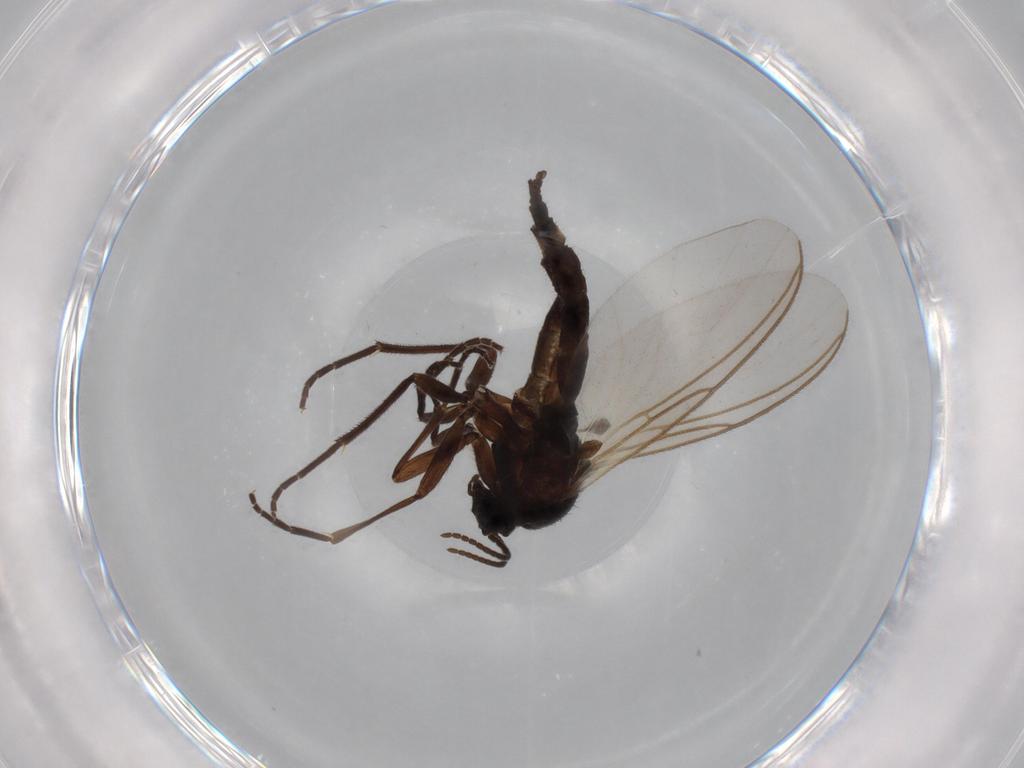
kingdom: Animalia
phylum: Arthropoda
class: Insecta
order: Diptera
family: Sciaridae
